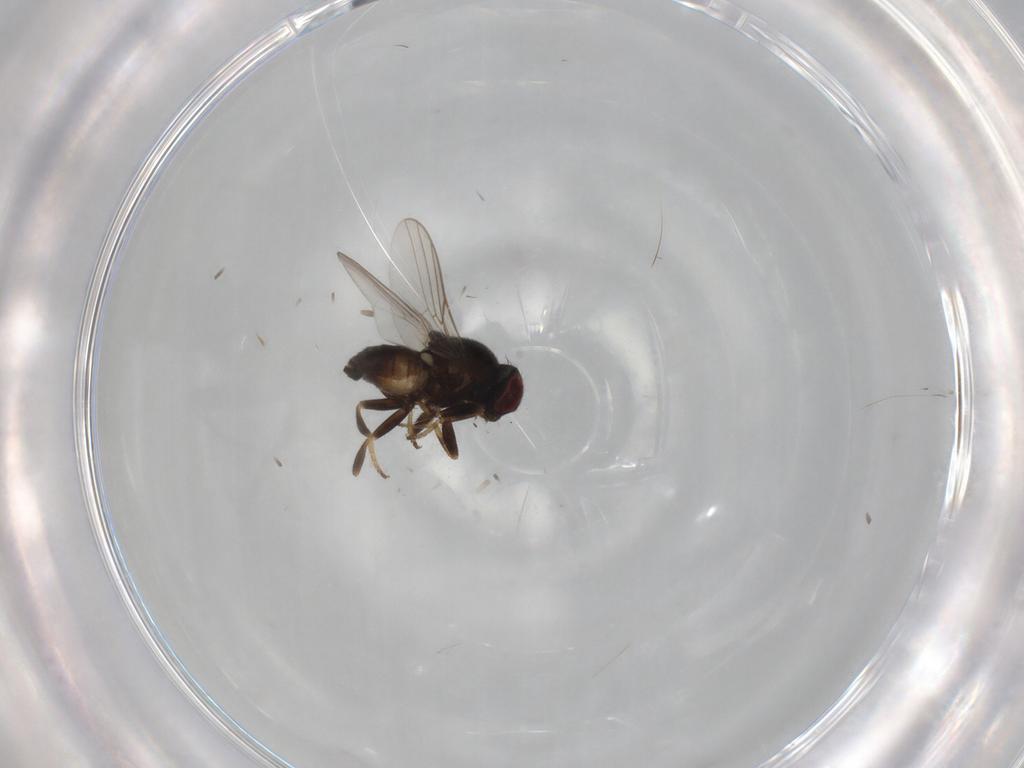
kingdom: Animalia
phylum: Arthropoda
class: Insecta
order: Diptera
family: Chloropidae
